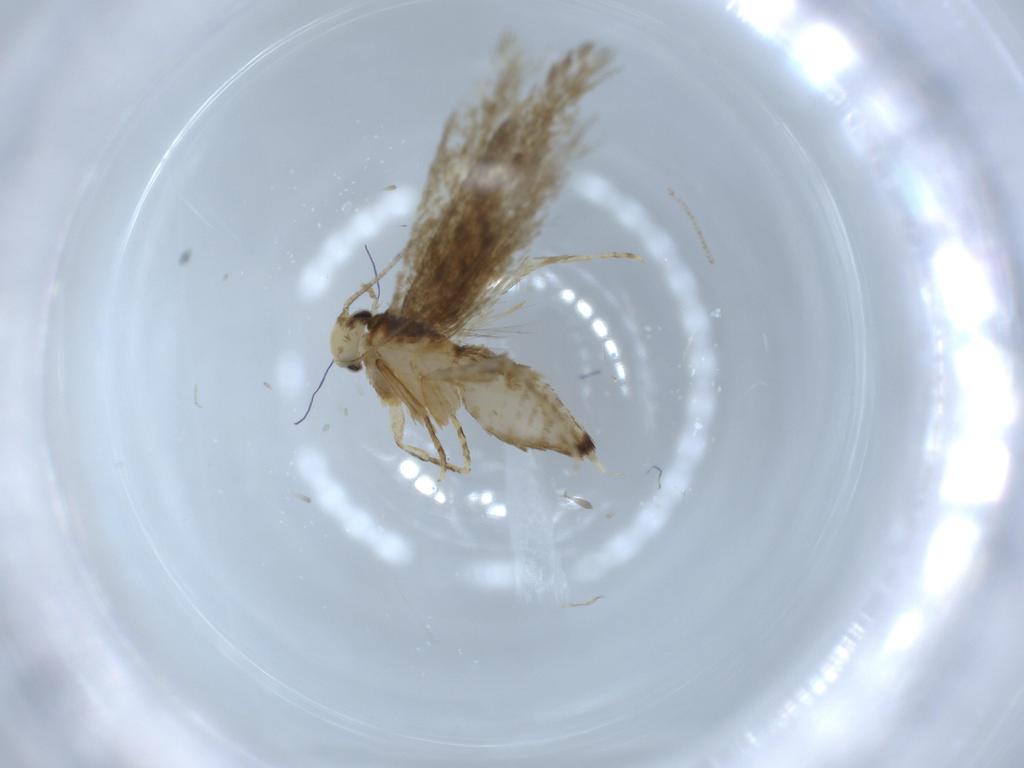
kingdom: Animalia
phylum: Arthropoda
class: Insecta
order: Lepidoptera
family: Tineidae
